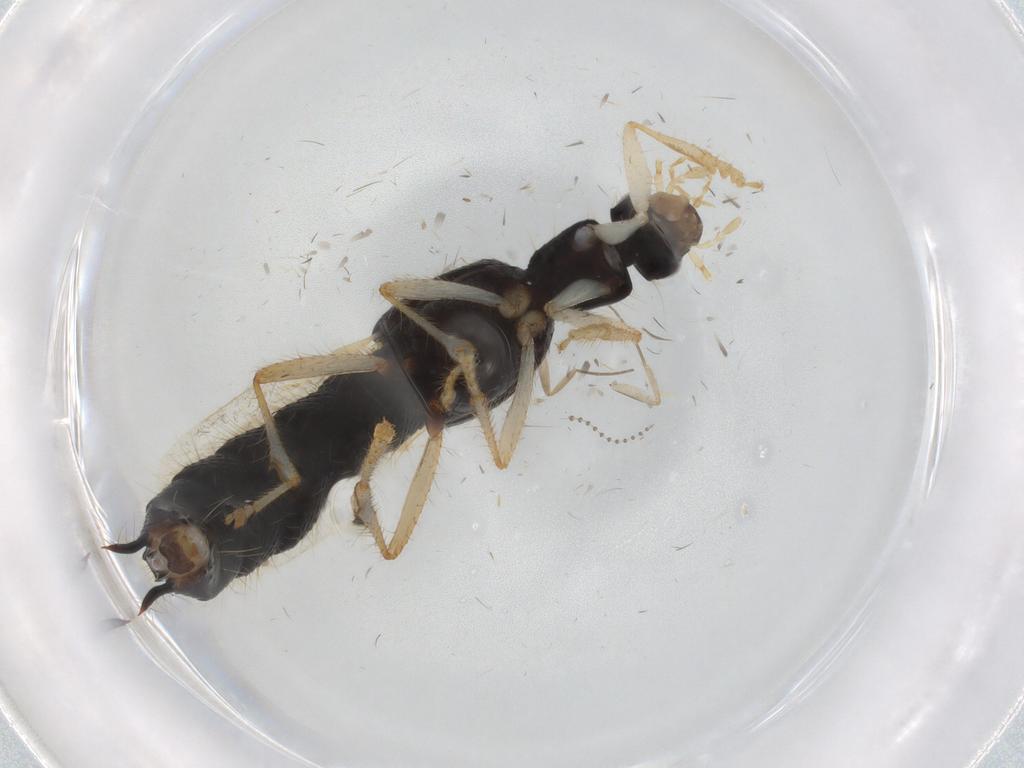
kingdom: Animalia
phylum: Arthropoda
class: Insecta
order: Coleoptera
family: Staphylinidae
